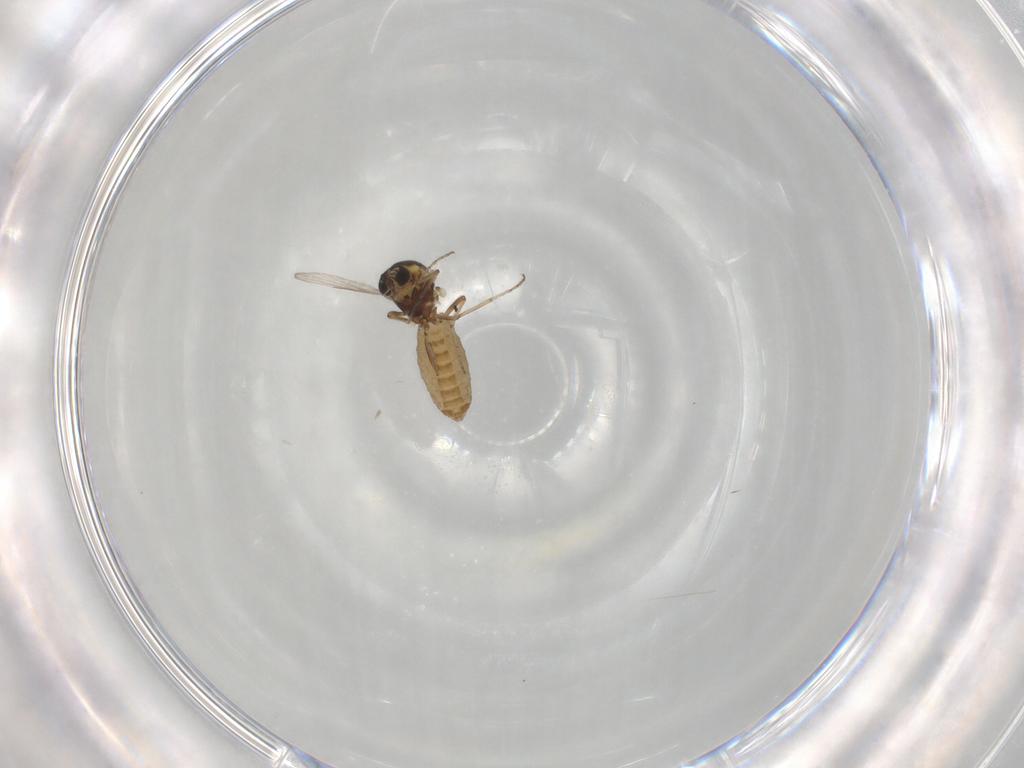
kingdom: Animalia
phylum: Arthropoda
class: Insecta
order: Diptera
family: Ceratopogonidae
